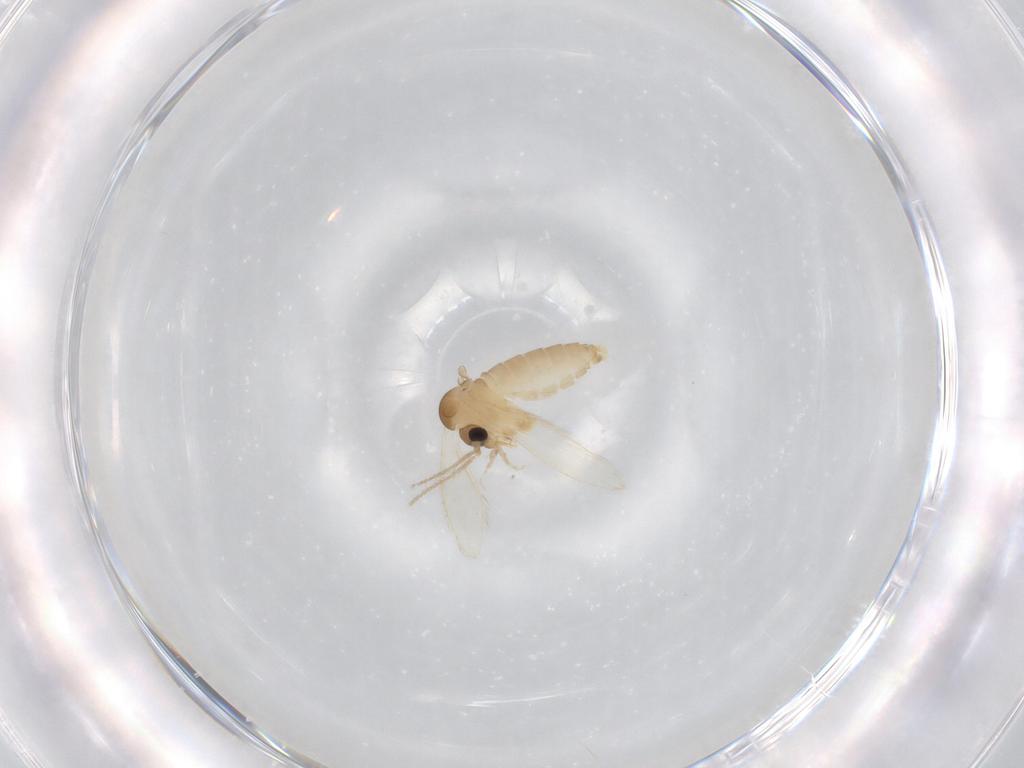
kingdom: Animalia
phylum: Arthropoda
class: Insecta
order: Diptera
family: Psychodidae
